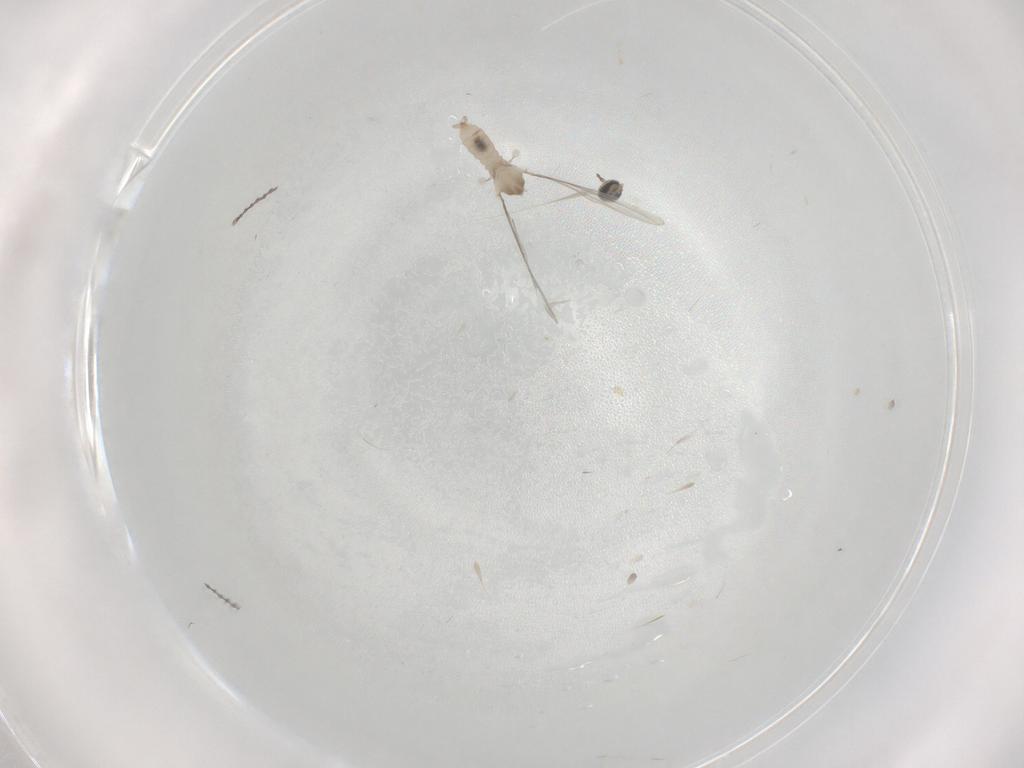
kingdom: Animalia
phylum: Arthropoda
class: Insecta
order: Diptera
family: Cecidomyiidae
